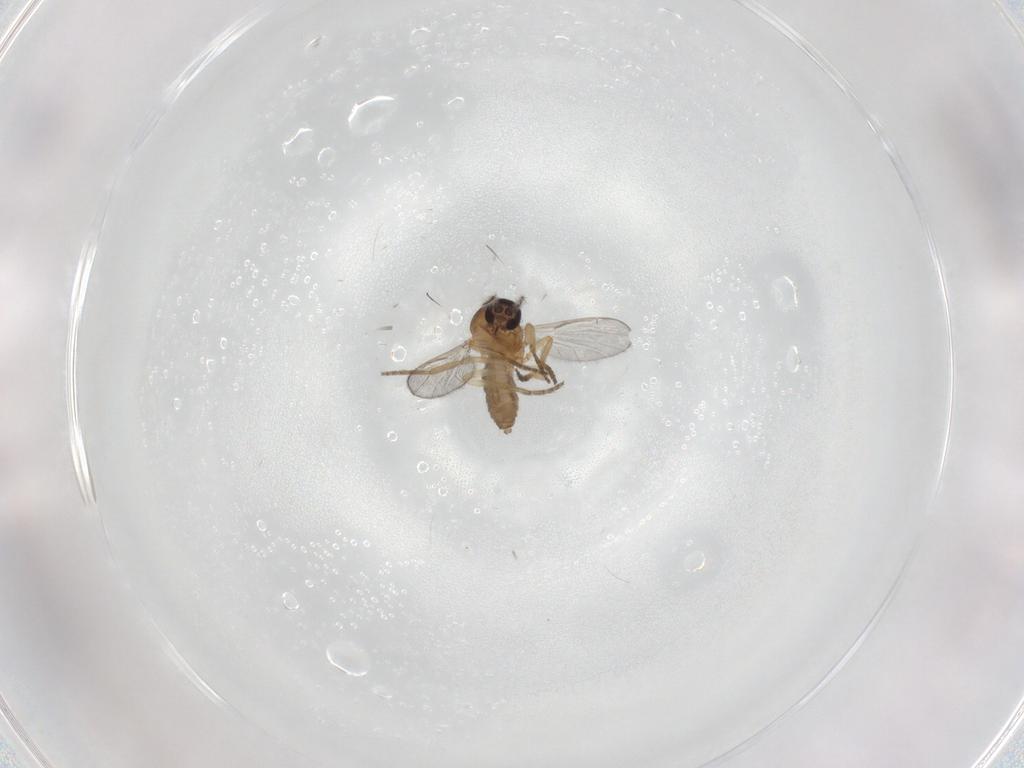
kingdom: Animalia
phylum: Arthropoda
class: Insecta
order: Diptera
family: Ceratopogonidae
